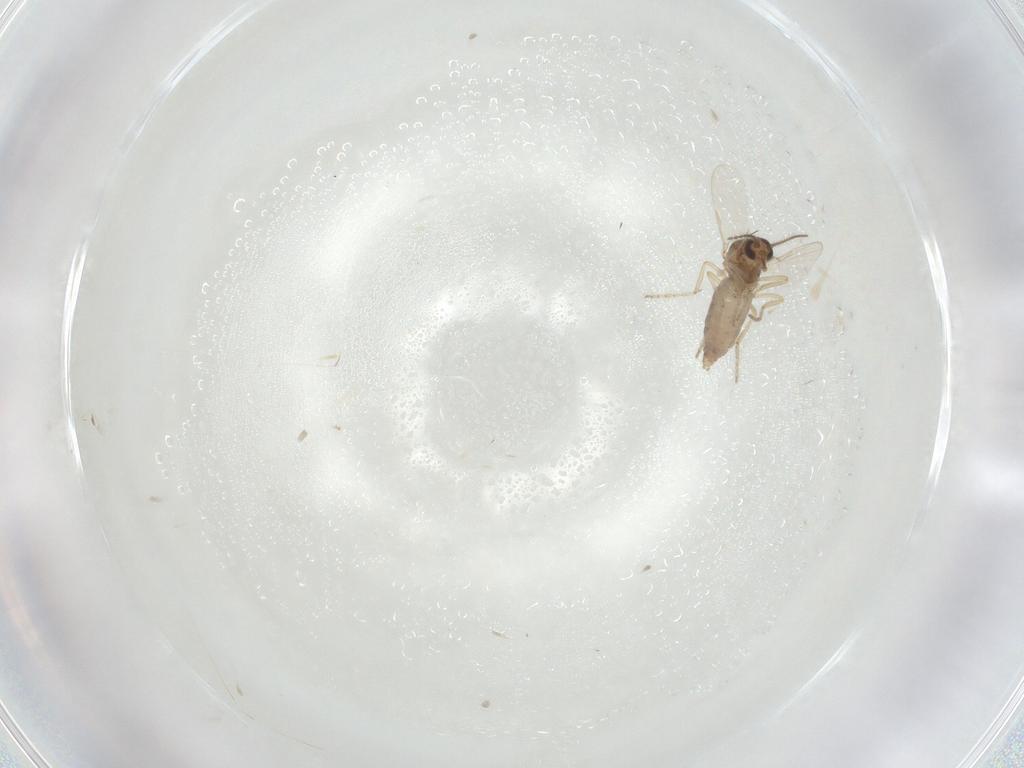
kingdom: Animalia
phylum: Arthropoda
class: Insecta
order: Diptera
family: Ceratopogonidae
